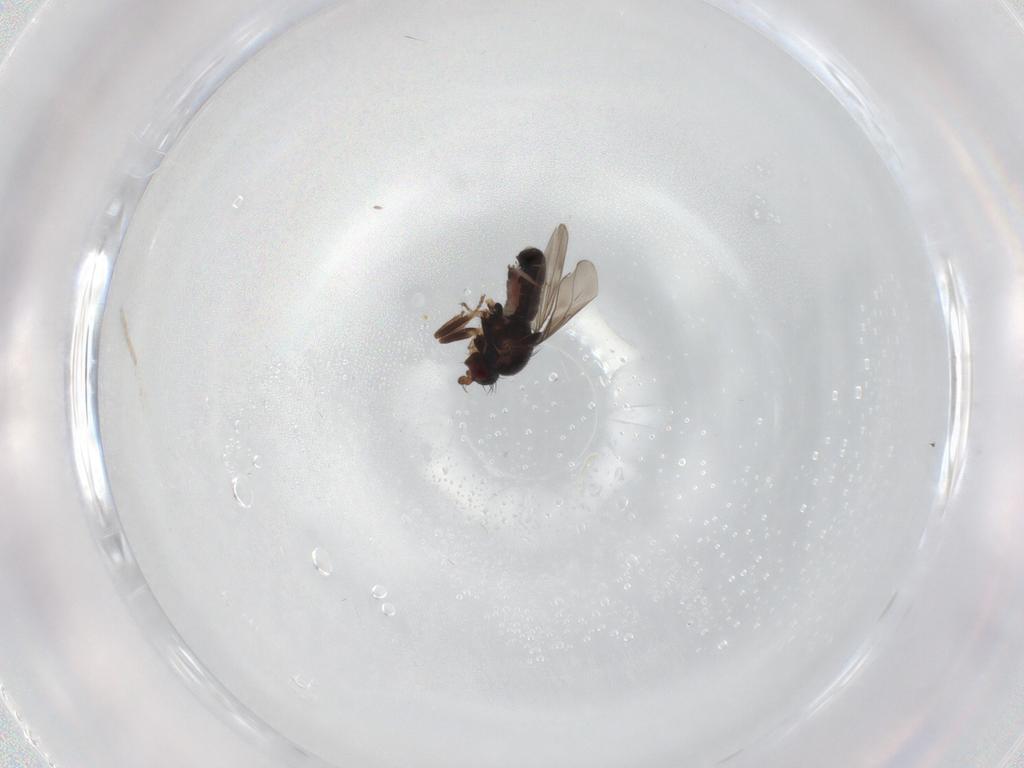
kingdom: Animalia
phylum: Arthropoda
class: Insecta
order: Diptera
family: Sphaeroceridae
